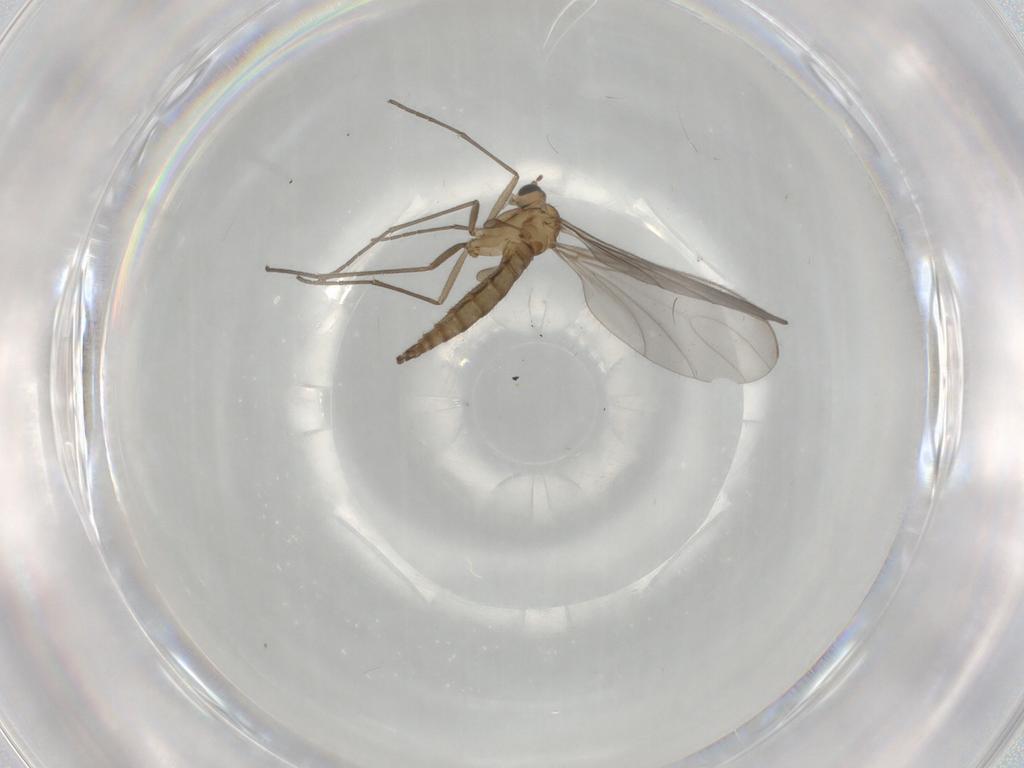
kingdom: Animalia
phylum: Arthropoda
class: Insecta
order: Diptera
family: Sciaridae
